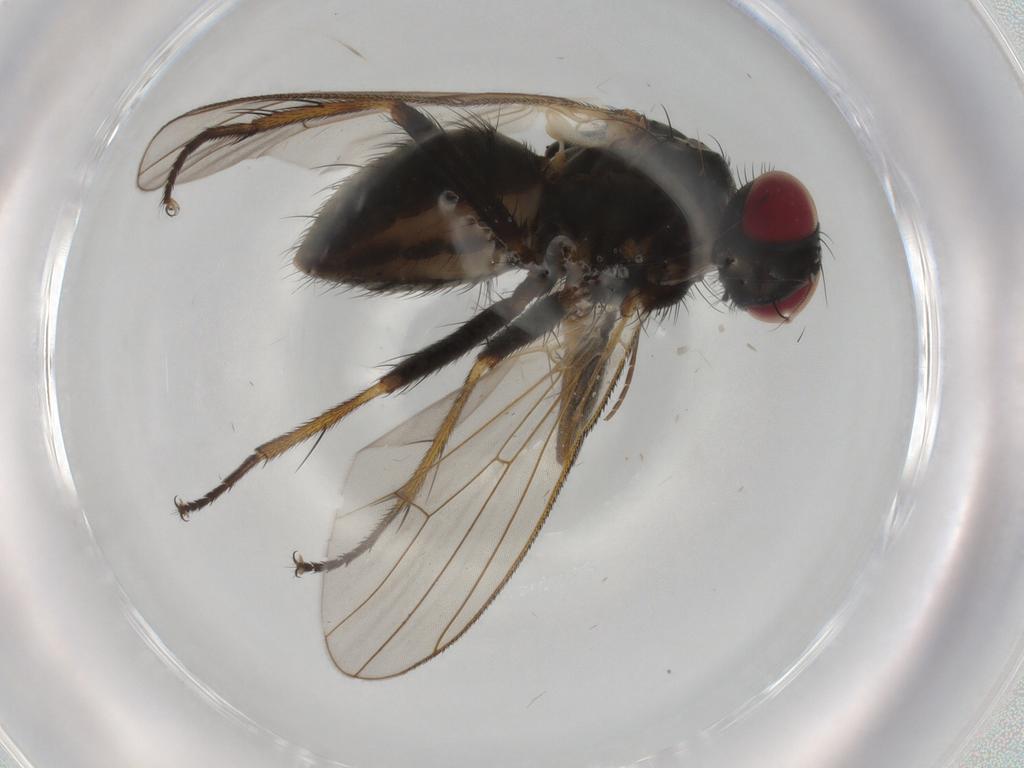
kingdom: Animalia
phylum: Arthropoda
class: Insecta
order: Diptera
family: Muscidae
